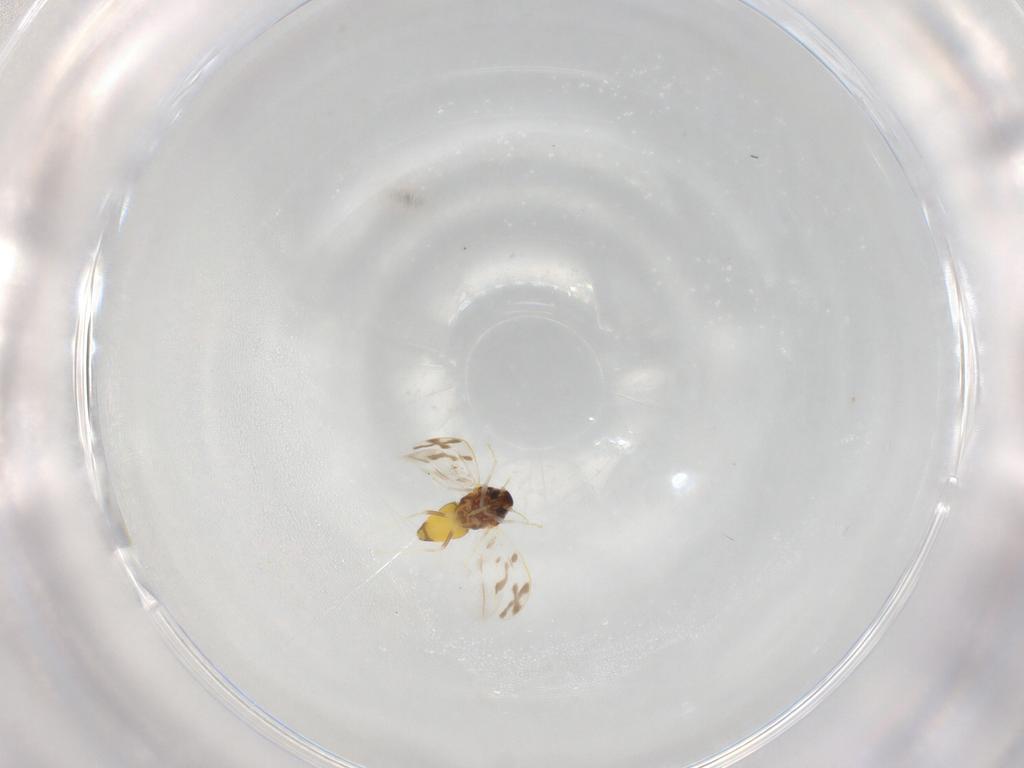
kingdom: Animalia
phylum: Arthropoda
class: Insecta
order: Hemiptera
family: Aleyrodidae
